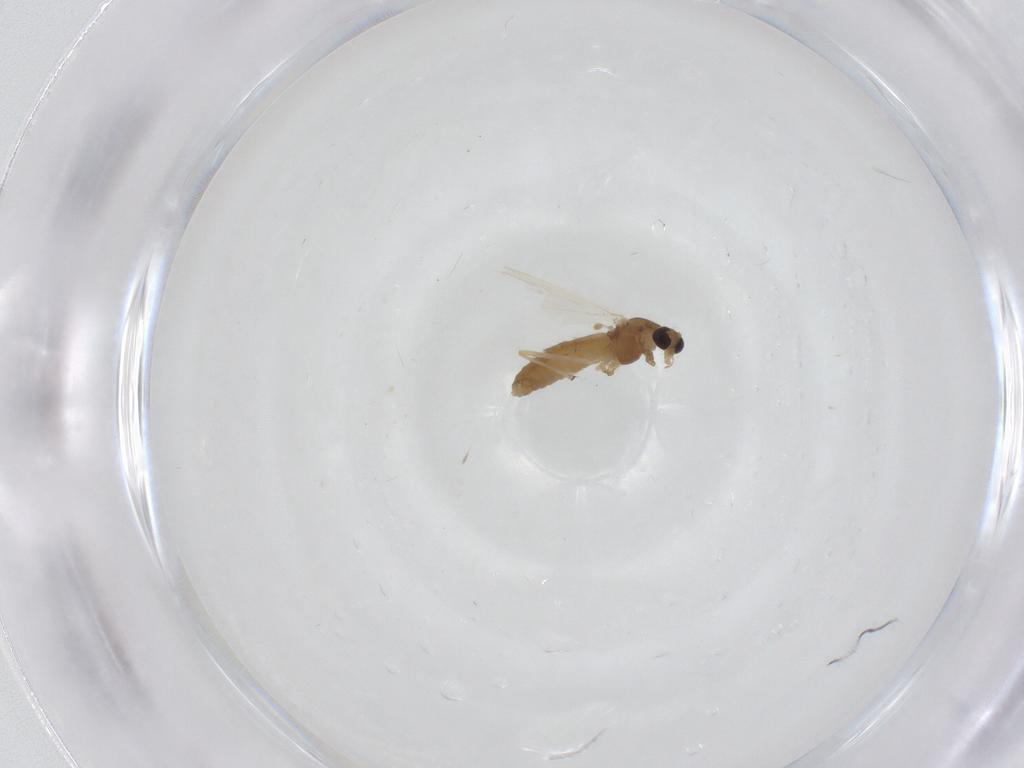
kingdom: Animalia
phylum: Arthropoda
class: Insecta
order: Diptera
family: Chironomidae
